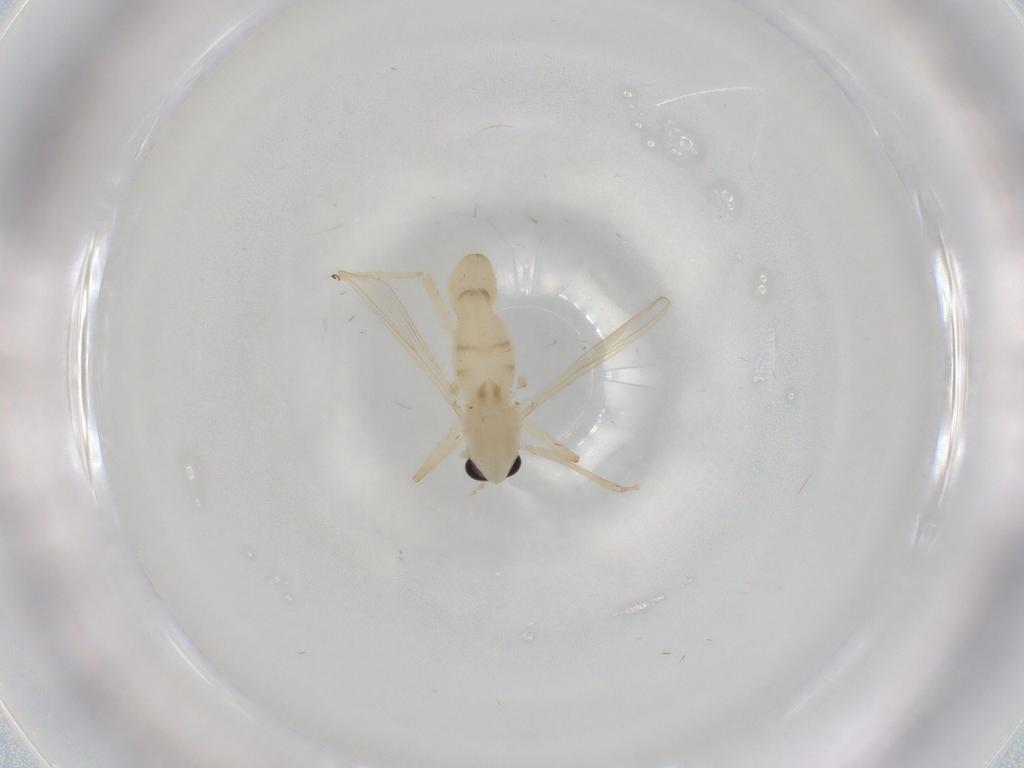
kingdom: Animalia
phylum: Arthropoda
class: Insecta
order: Diptera
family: Chironomidae
